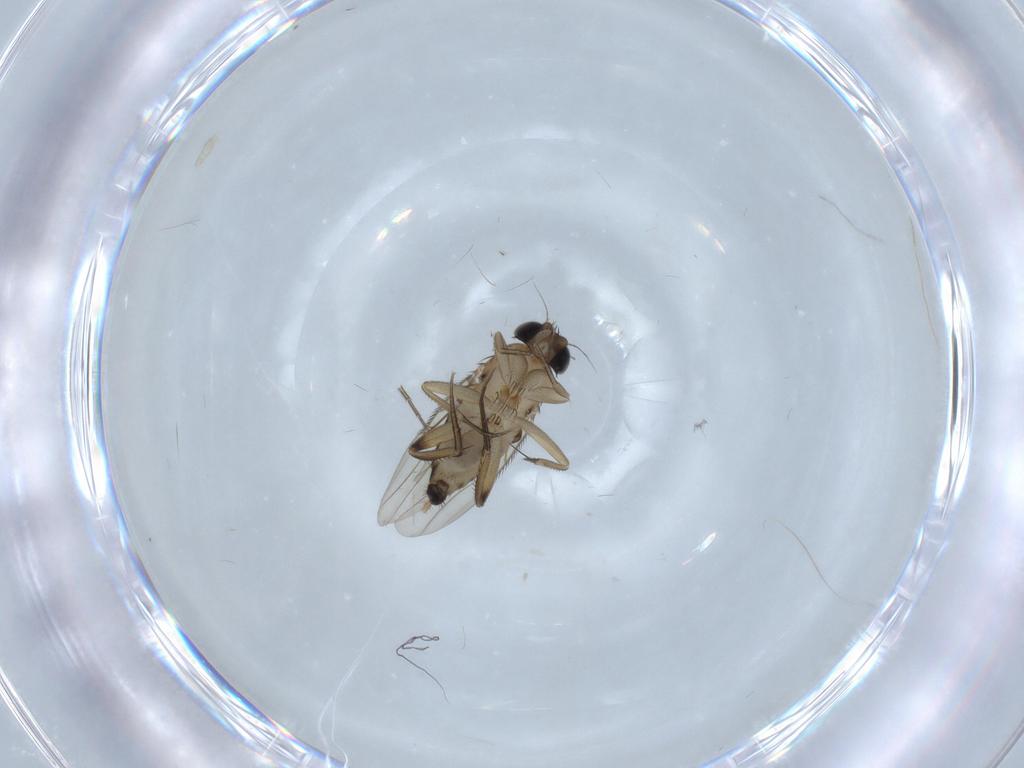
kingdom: Animalia
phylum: Arthropoda
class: Insecta
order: Diptera
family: Phoridae
